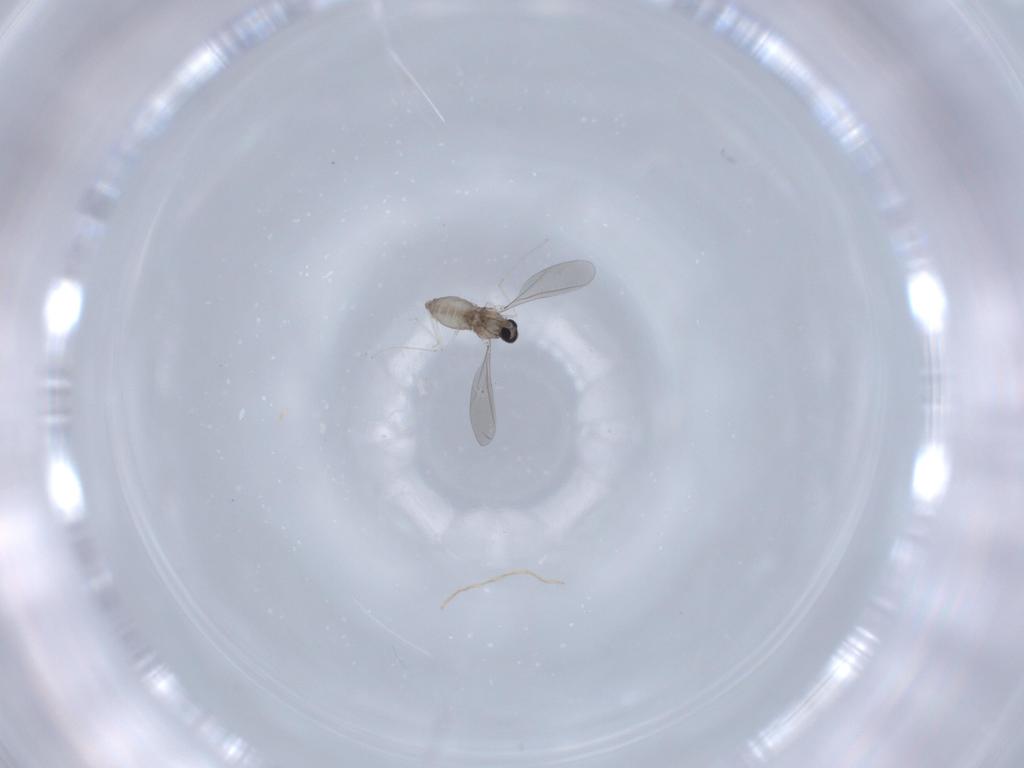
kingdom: Animalia
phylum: Arthropoda
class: Insecta
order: Diptera
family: Cecidomyiidae
